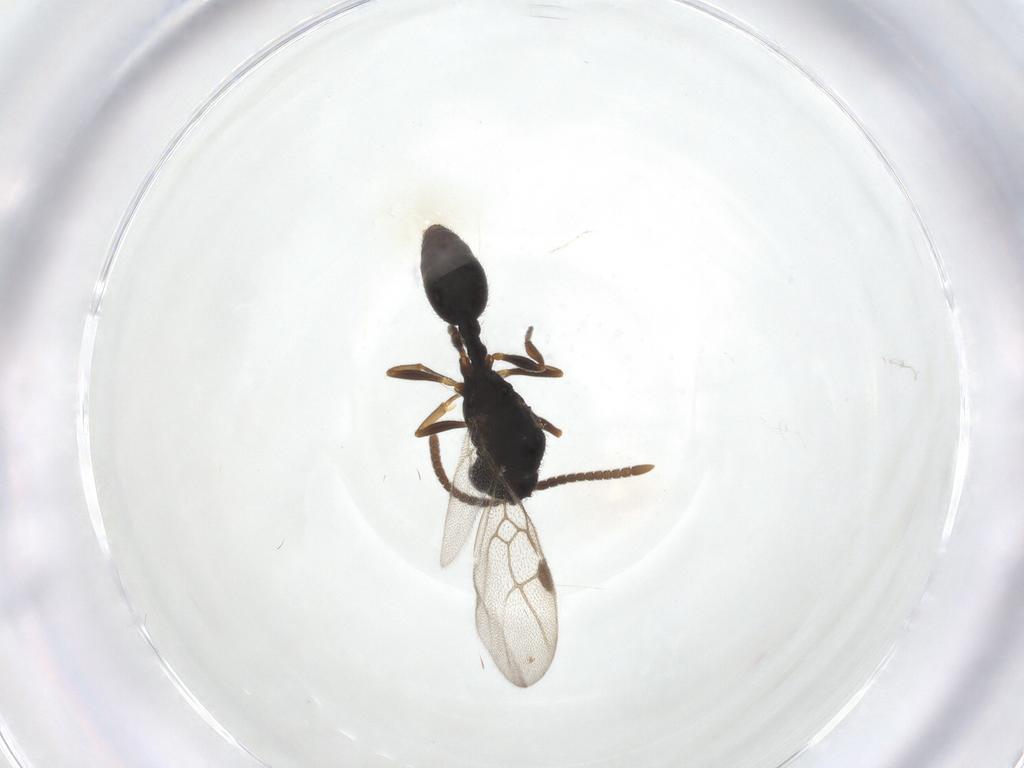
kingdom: Animalia
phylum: Arthropoda
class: Insecta
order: Hymenoptera
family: Formicidae
